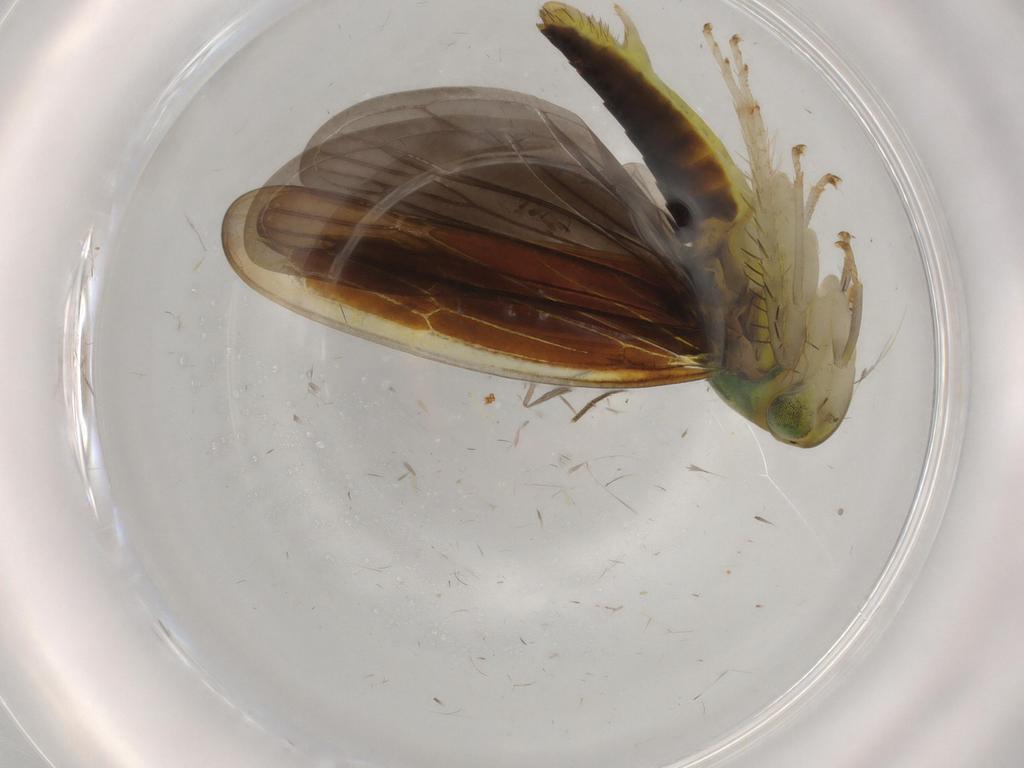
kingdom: Animalia
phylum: Arthropoda
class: Insecta
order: Hemiptera
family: Cicadellidae
